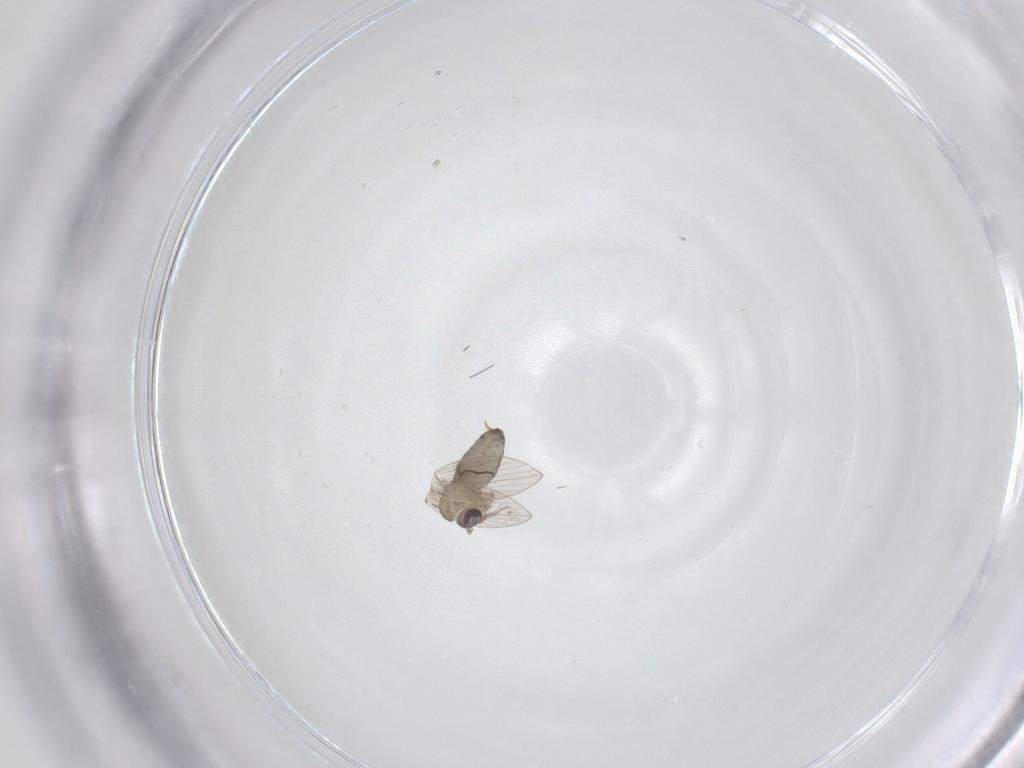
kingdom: Animalia
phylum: Arthropoda
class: Insecta
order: Diptera
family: Psychodidae
